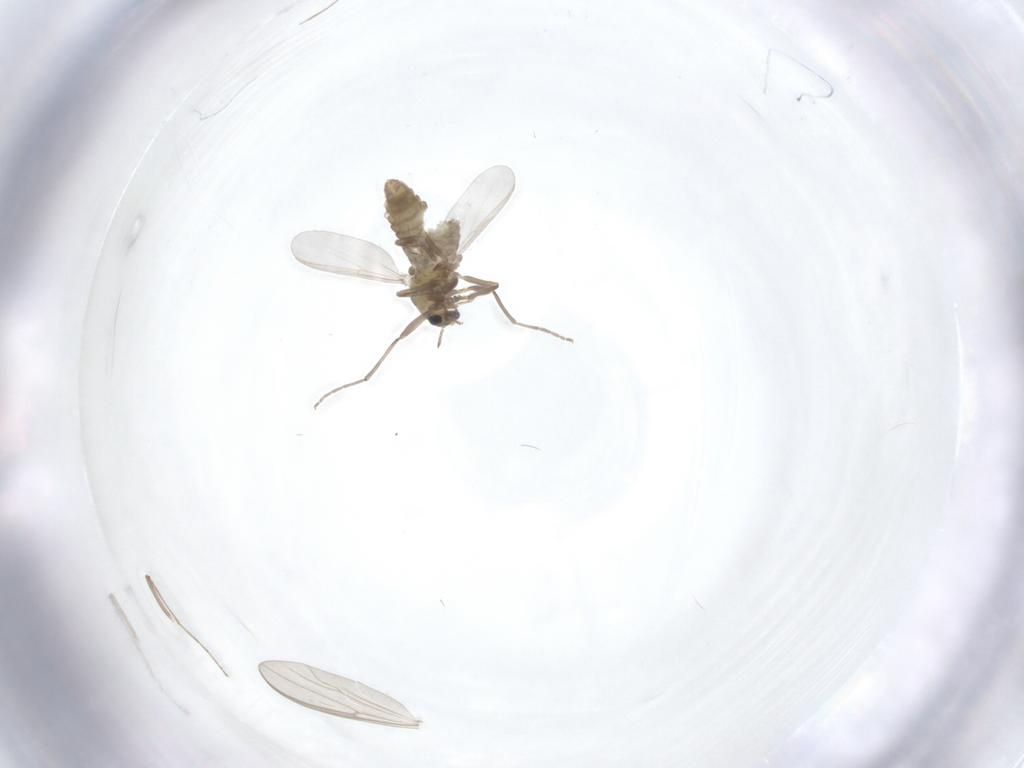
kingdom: Animalia
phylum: Arthropoda
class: Insecta
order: Diptera
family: Chironomidae
